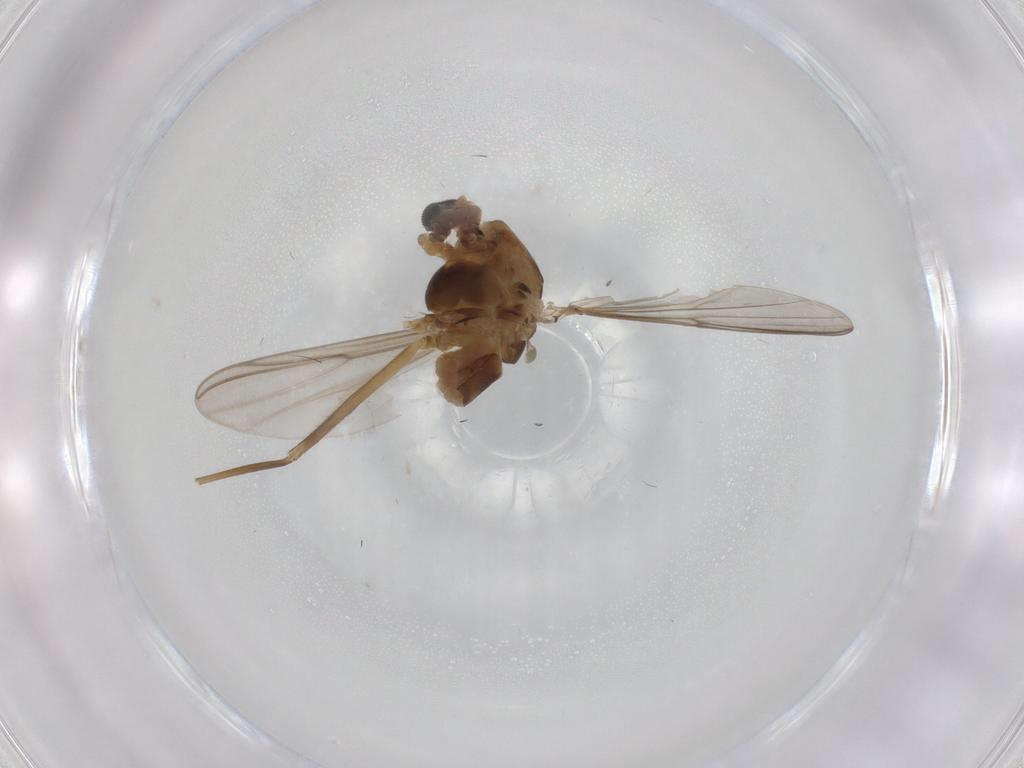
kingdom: Animalia
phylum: Arthropoda
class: Insecta
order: Diptera
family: Chironomidae
